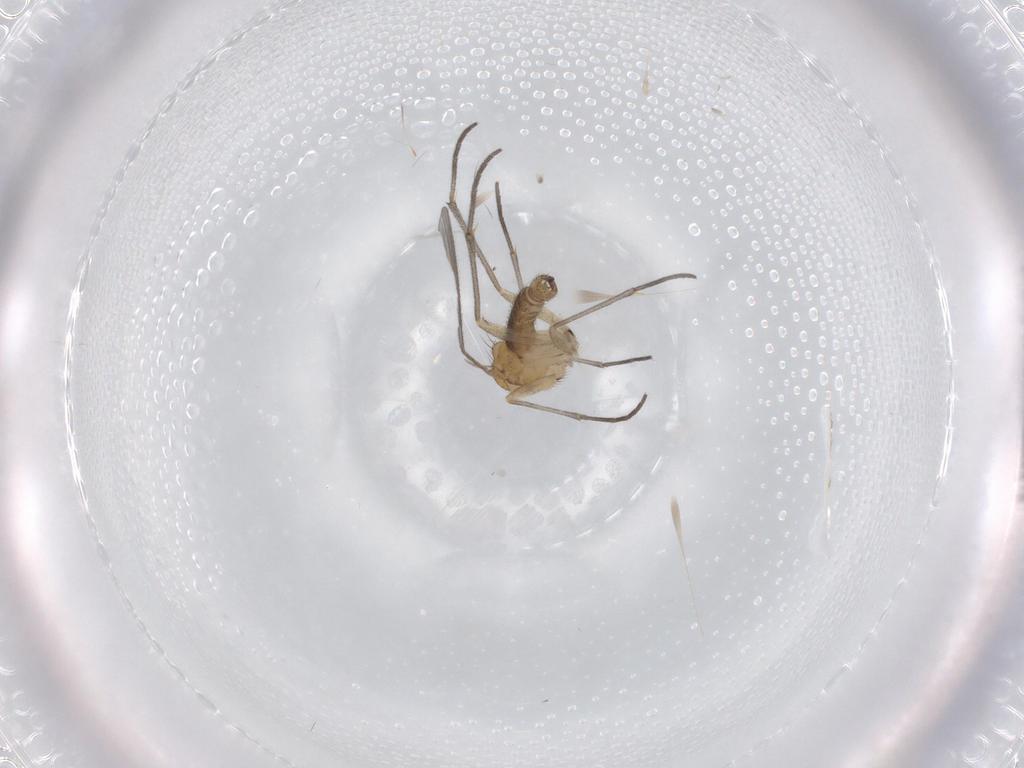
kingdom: Animalia
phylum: Arthropoda
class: Insecta
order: Diptera
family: Sciaridae
